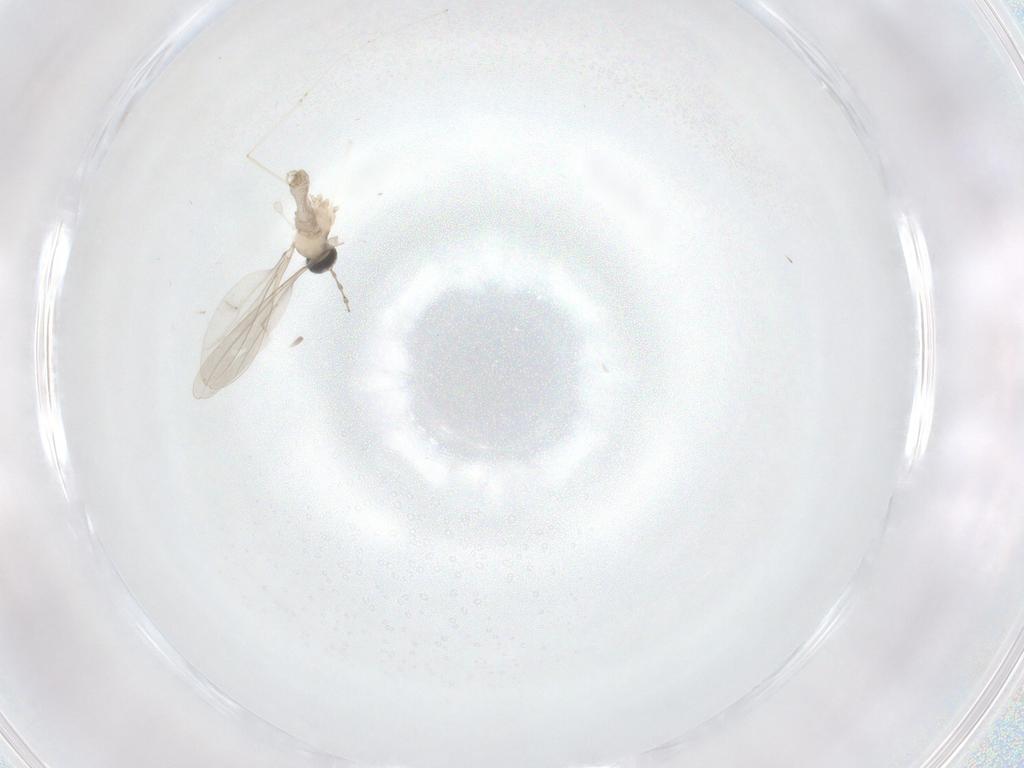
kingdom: Animalia
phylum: Arthropoda
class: Insecta
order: Diptera
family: Cecidomyiidae
